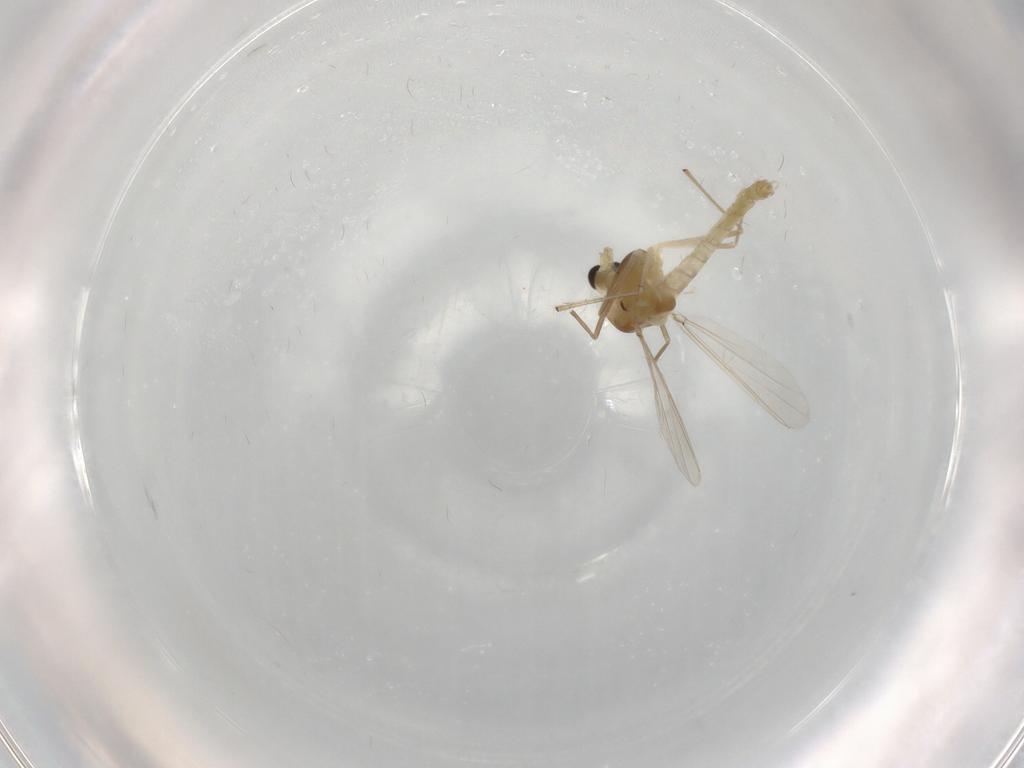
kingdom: Animalia
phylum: Arthropoda
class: Insecta
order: Diptera
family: Chironomidae
